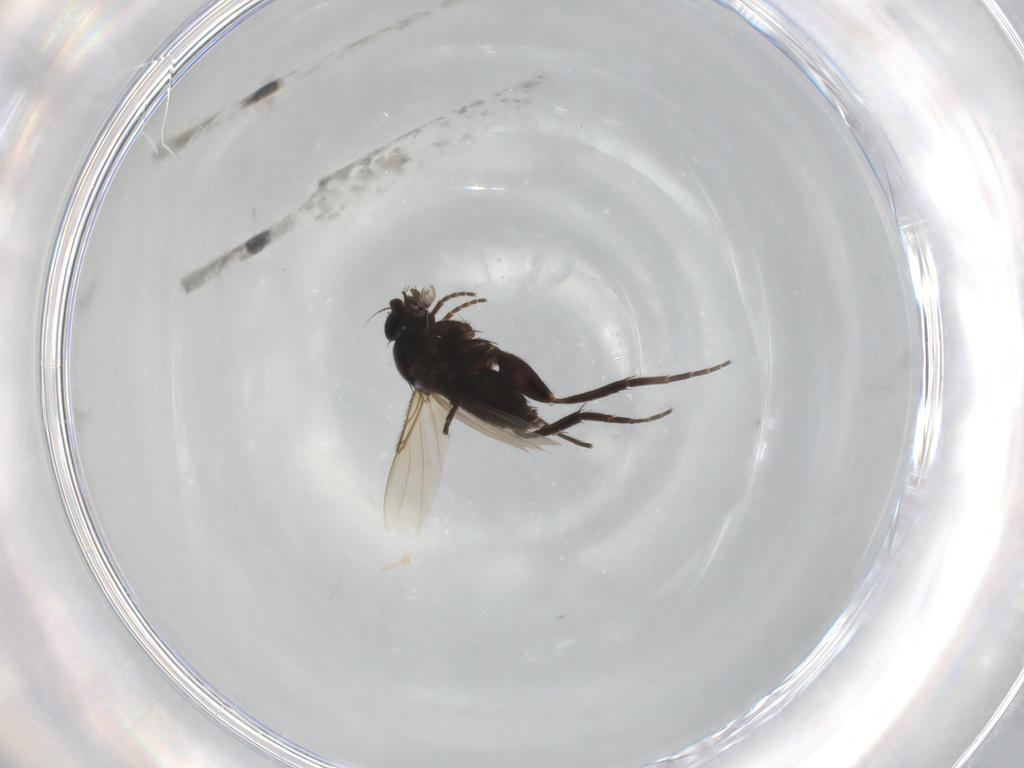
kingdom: Animalia
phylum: Arthropoda
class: Insecta
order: Diptera
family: Phoridae
